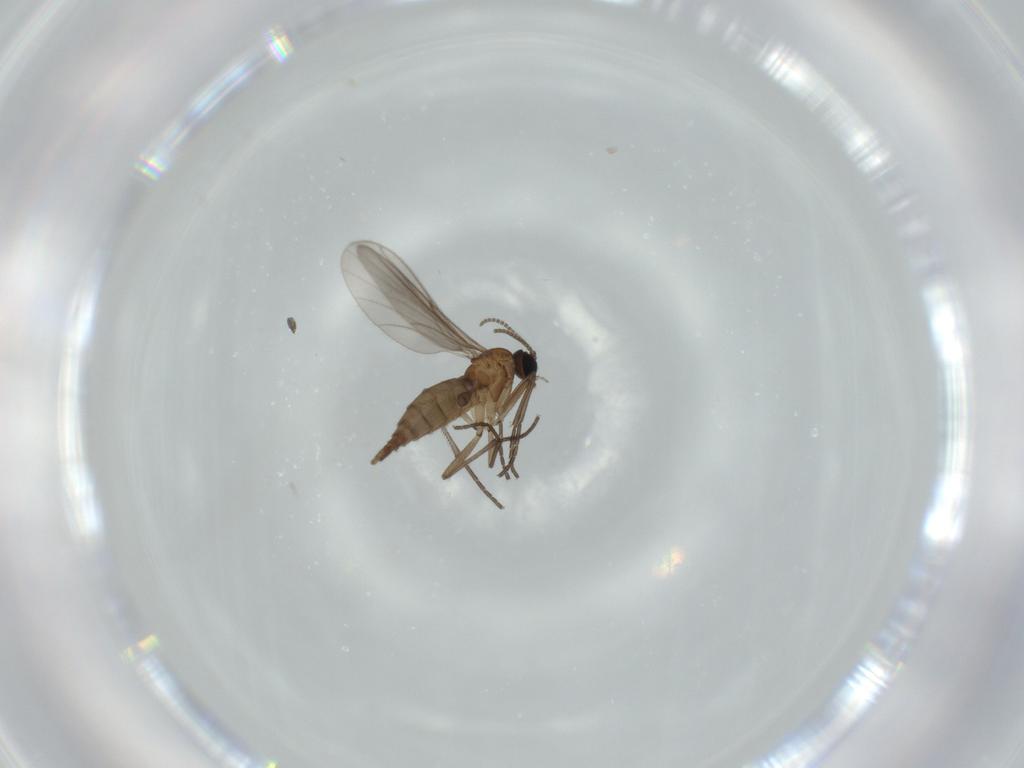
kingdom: Animalia
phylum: Arthropoda
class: Insecta
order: Diptera
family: Sciaridae
